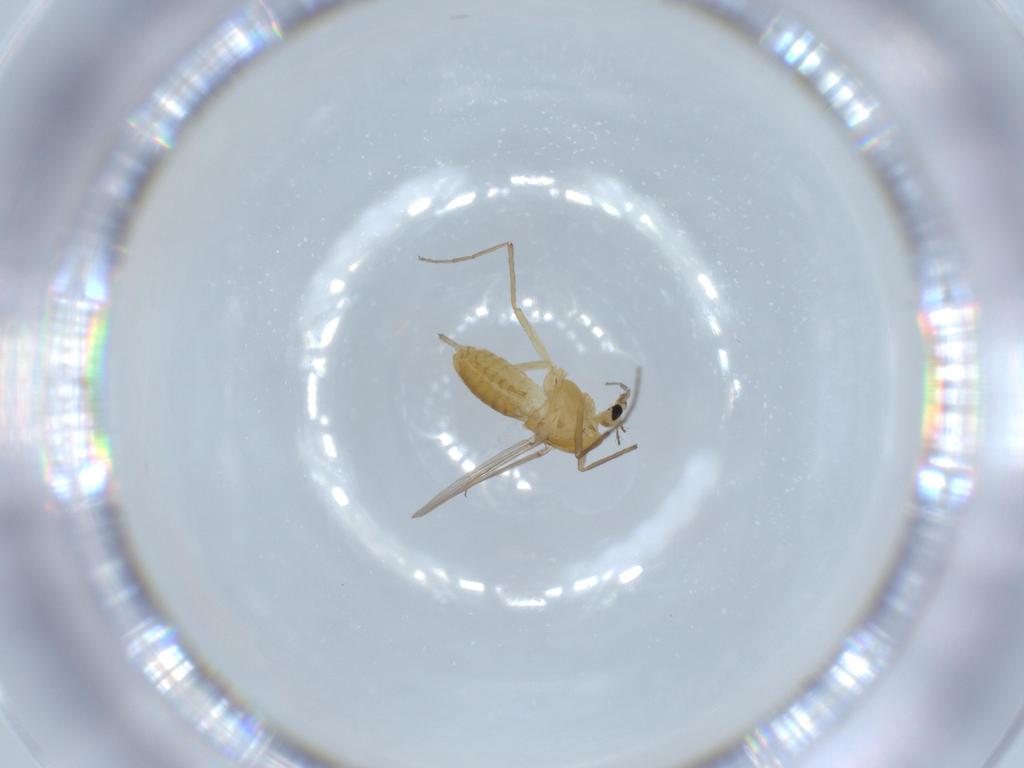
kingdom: Animalia
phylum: Arthropoda
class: Insecta
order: Diptera
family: Chironomidae
